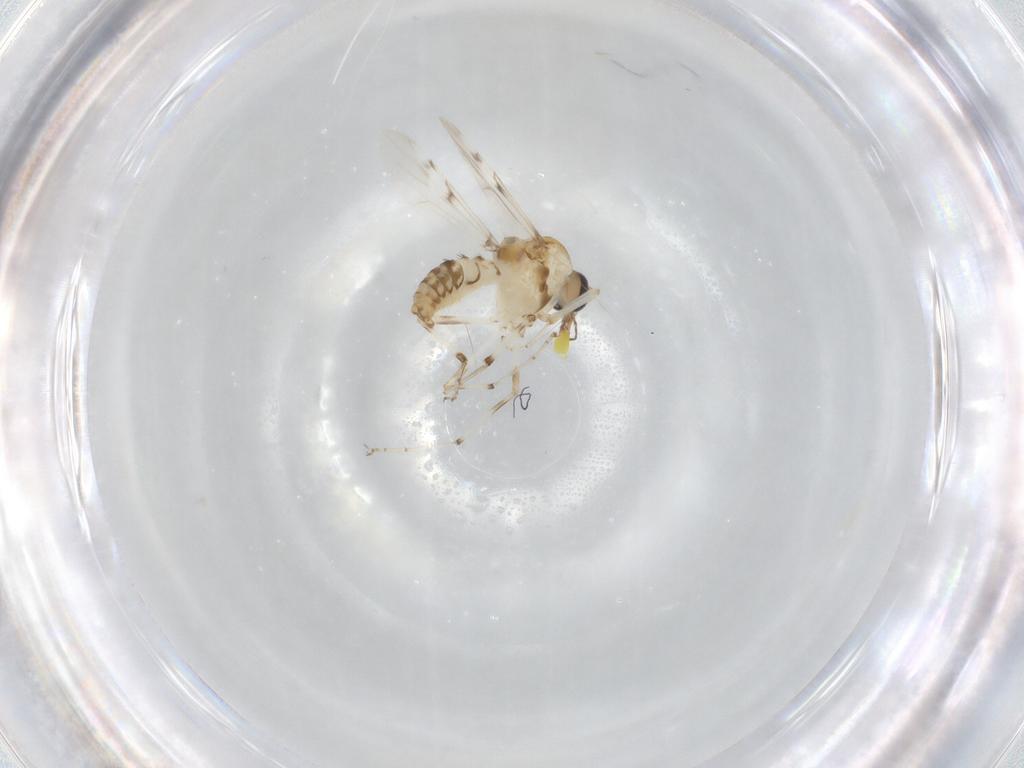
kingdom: Animalia
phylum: Arthropoda
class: Insecta
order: Diptera
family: Ceratopogonidae
